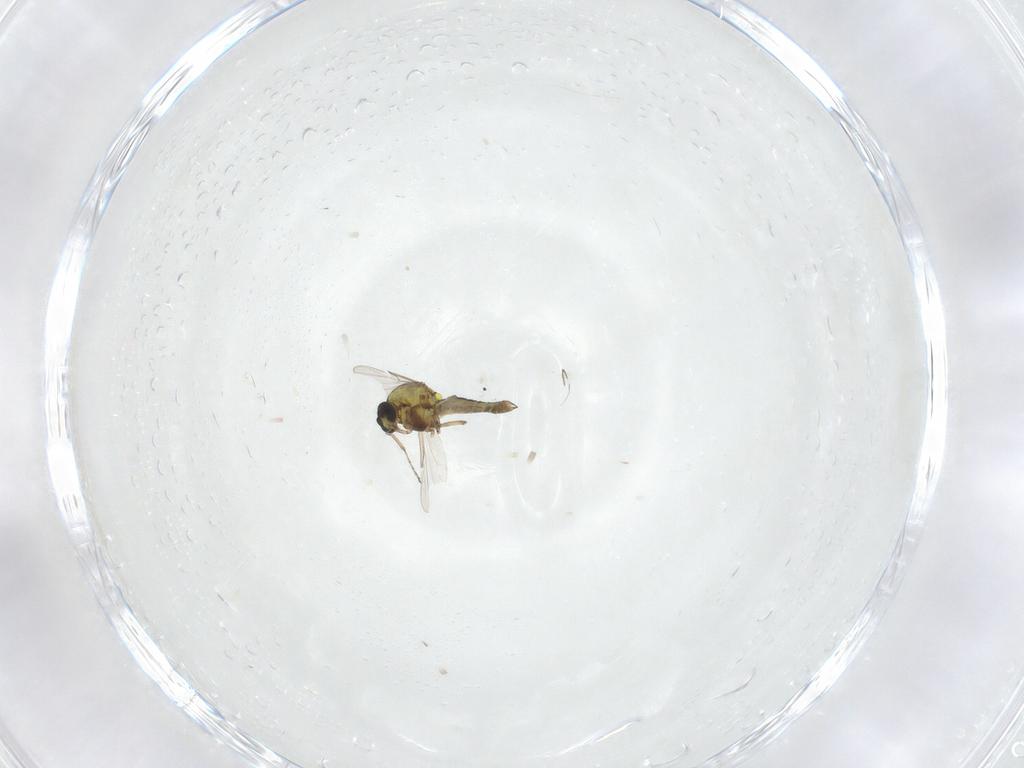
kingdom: Animalia
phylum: Arthropoda
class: Insecta
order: Diptera
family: Ceratopogonidae
